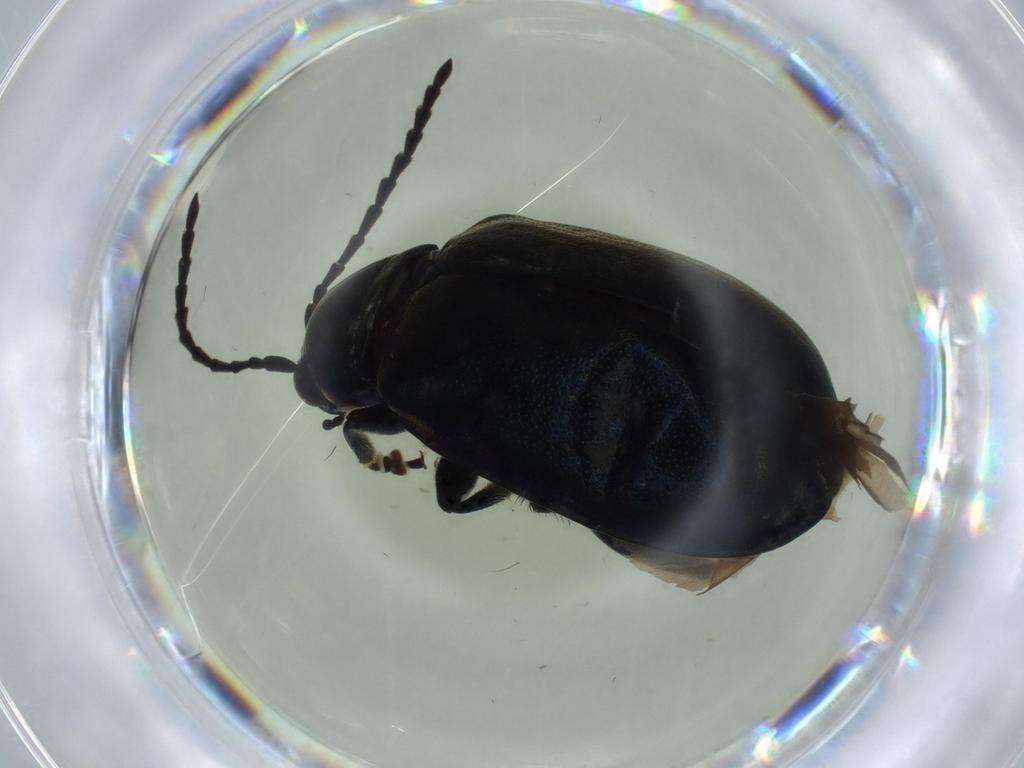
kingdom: Animalia
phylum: Arthropoda
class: Insecta
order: Coleoptera
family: Chrysomelidae
